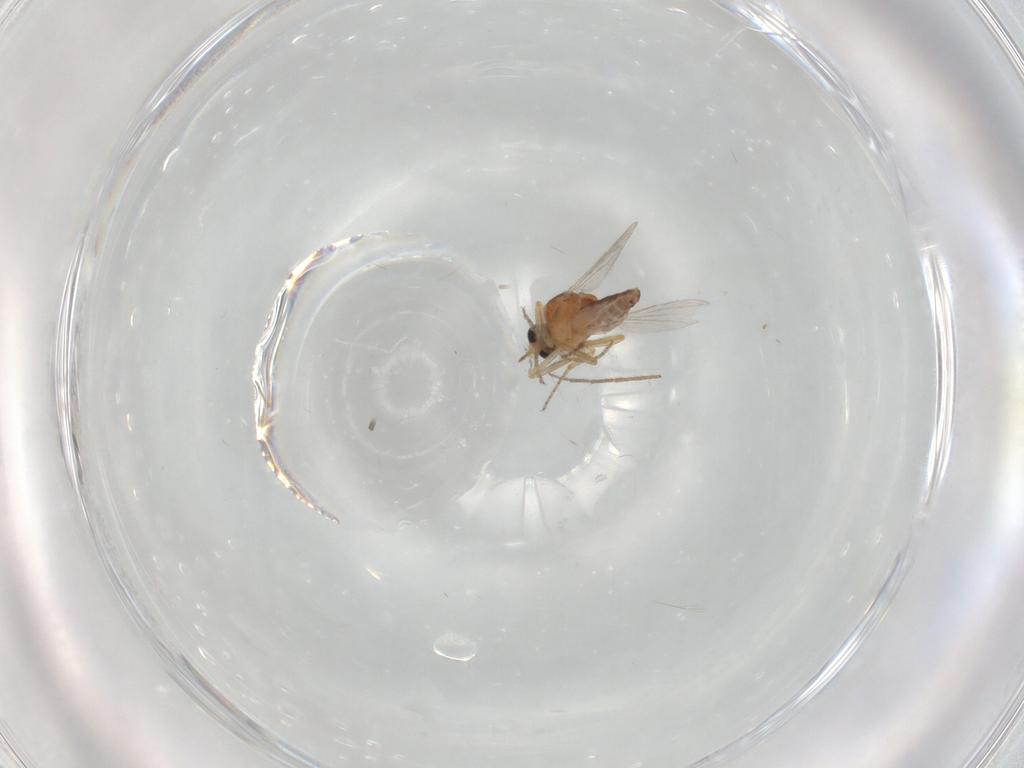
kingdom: Animalia
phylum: Arthropoda
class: Insecta
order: Diptera
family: Ceratopogonidae
